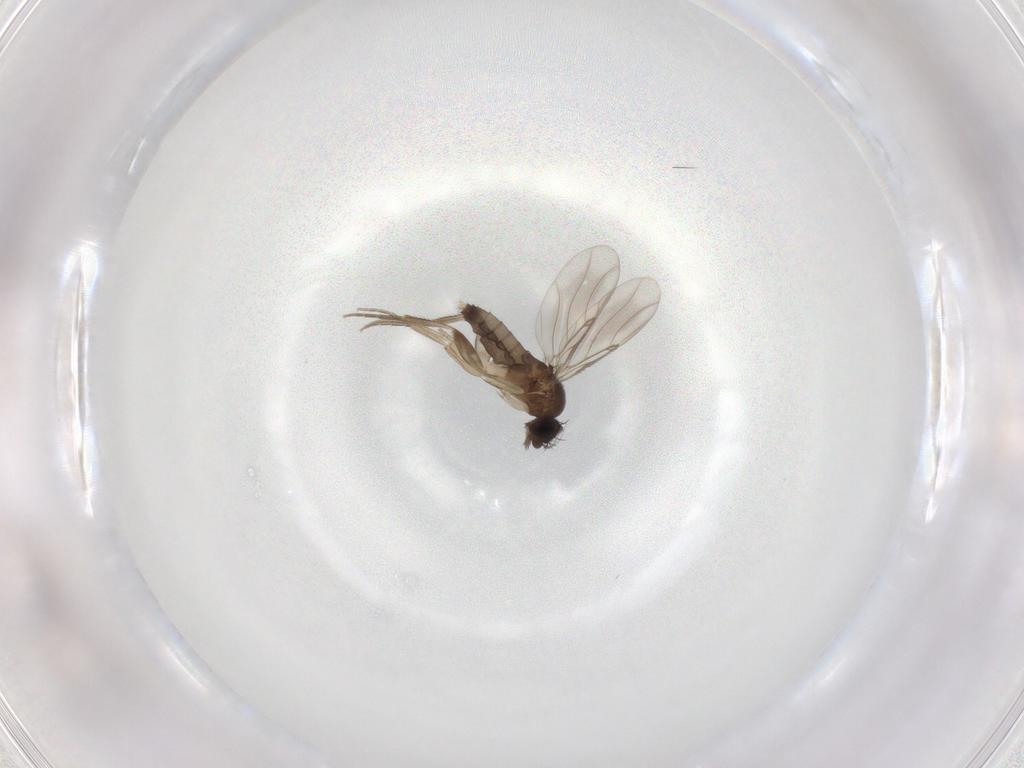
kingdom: Animalia
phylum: Arthropoda
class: Insecta
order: Diptera
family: Phoridae
